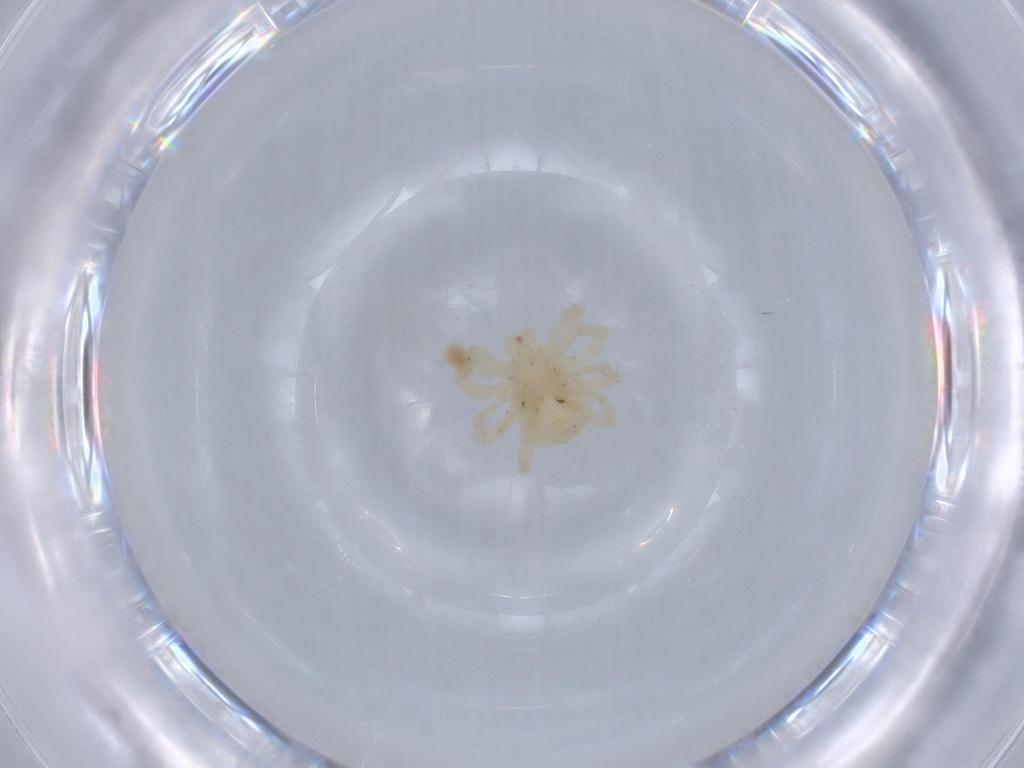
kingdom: Animalia
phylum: Arthropoda
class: Arachnida
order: Trombidiformes
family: Anystidae
